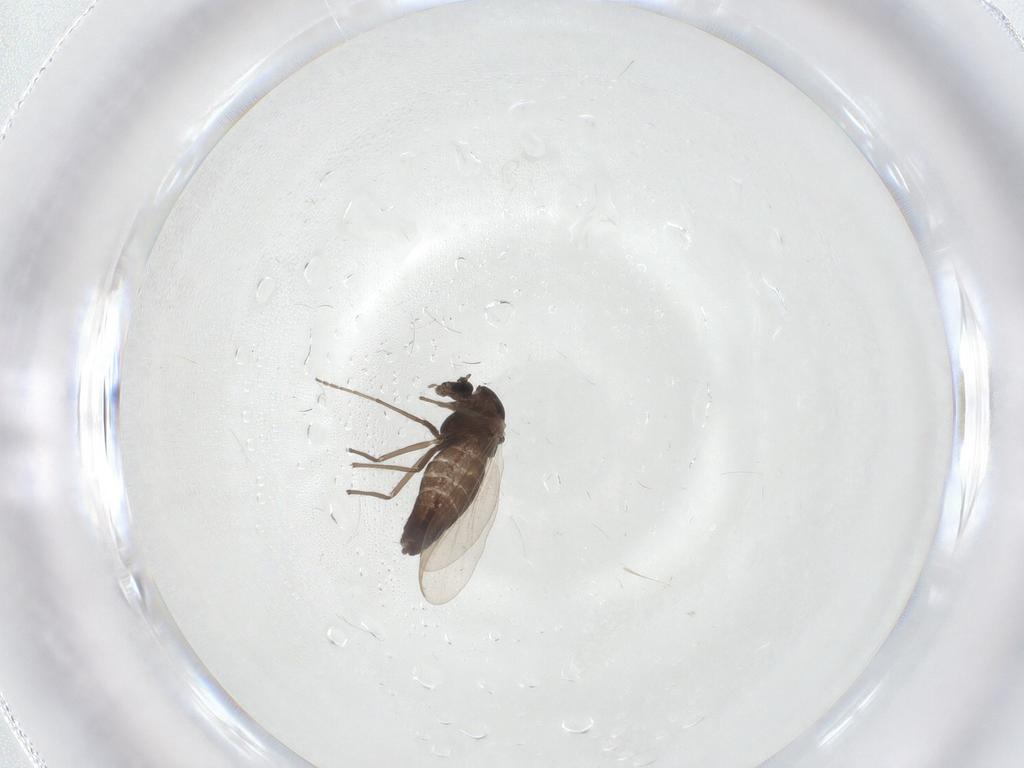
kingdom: Animalia
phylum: Arthropoda
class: Insecta
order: Diptera
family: Chironomidae
